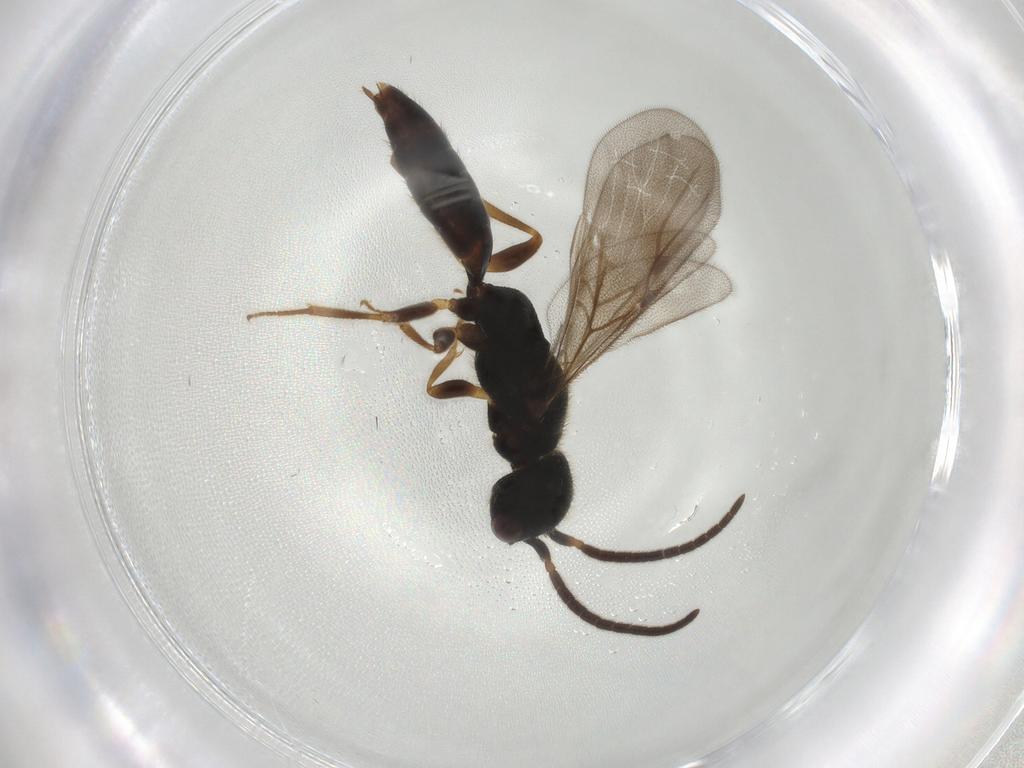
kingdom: Animalia
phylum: Arthropoda
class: Insecta
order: Hymenoptera
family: Bethylidae
